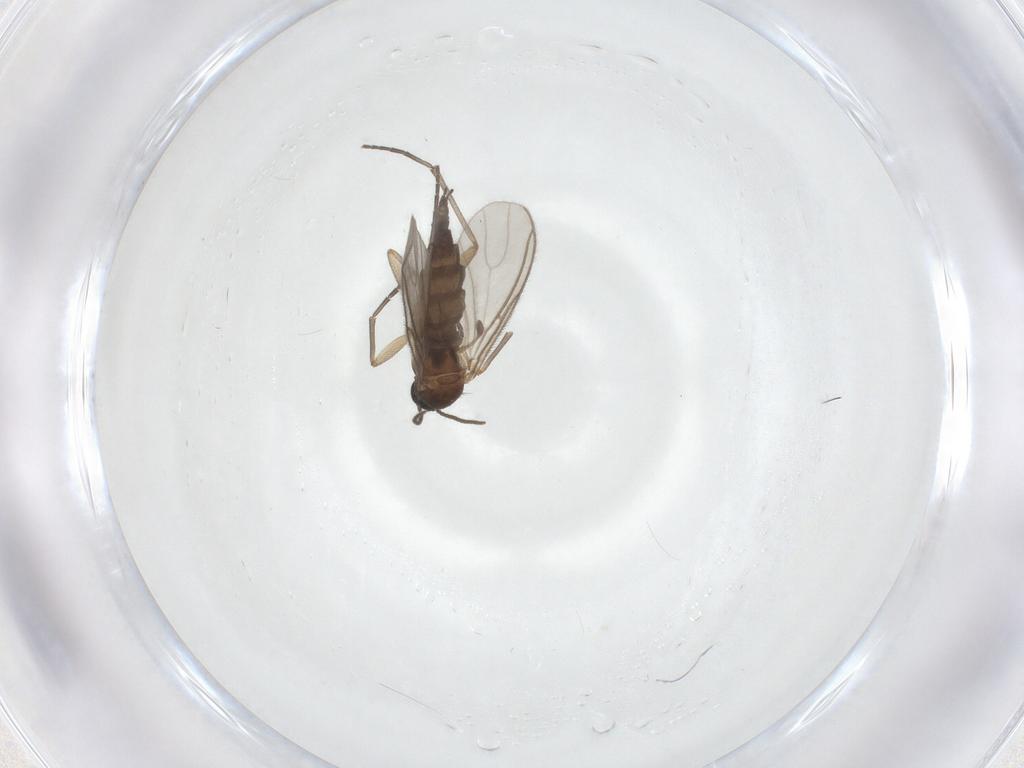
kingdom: Animalia
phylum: Arthropoda
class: Insecta
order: Diptera
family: Sciaridae
